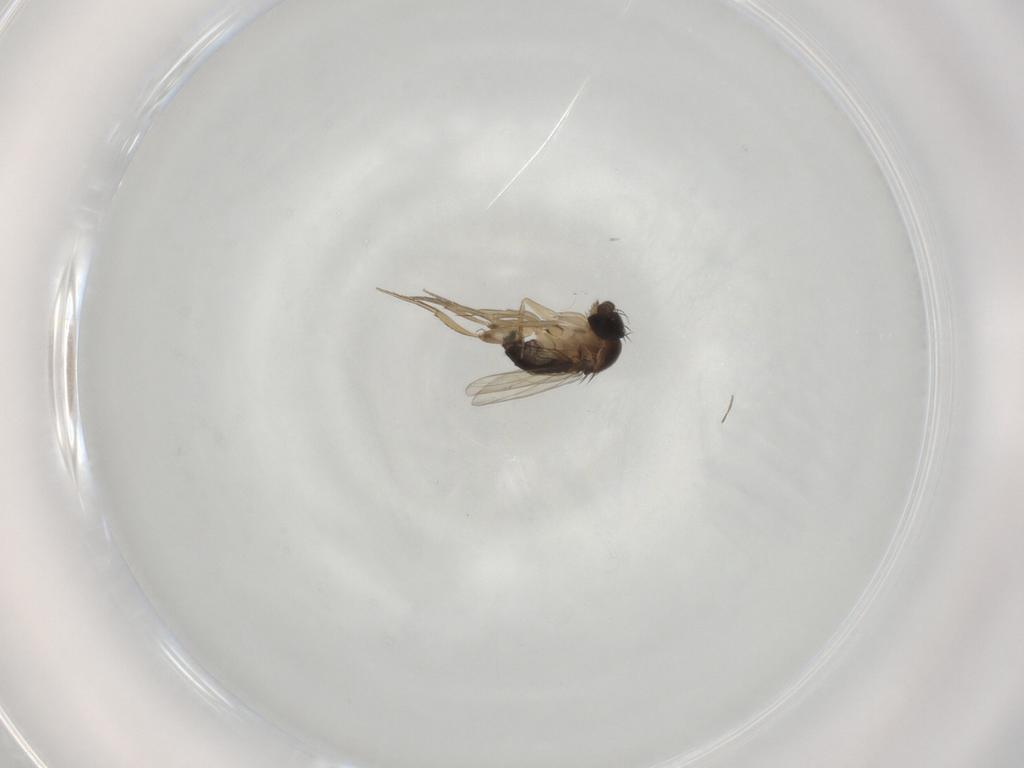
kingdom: Animalia
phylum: Arthropoda
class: Insecta
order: Diptera
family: Phoridae
